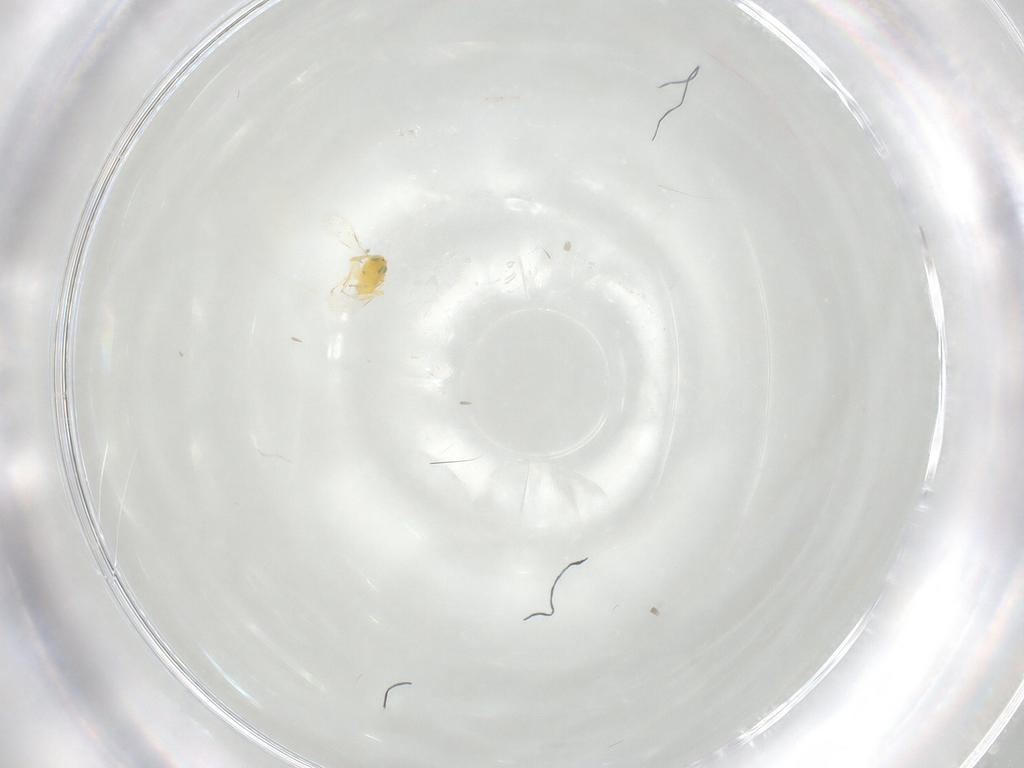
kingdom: Animalia
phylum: Arthropoda
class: Insecta
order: Hymenoptera
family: Aphelinidae
